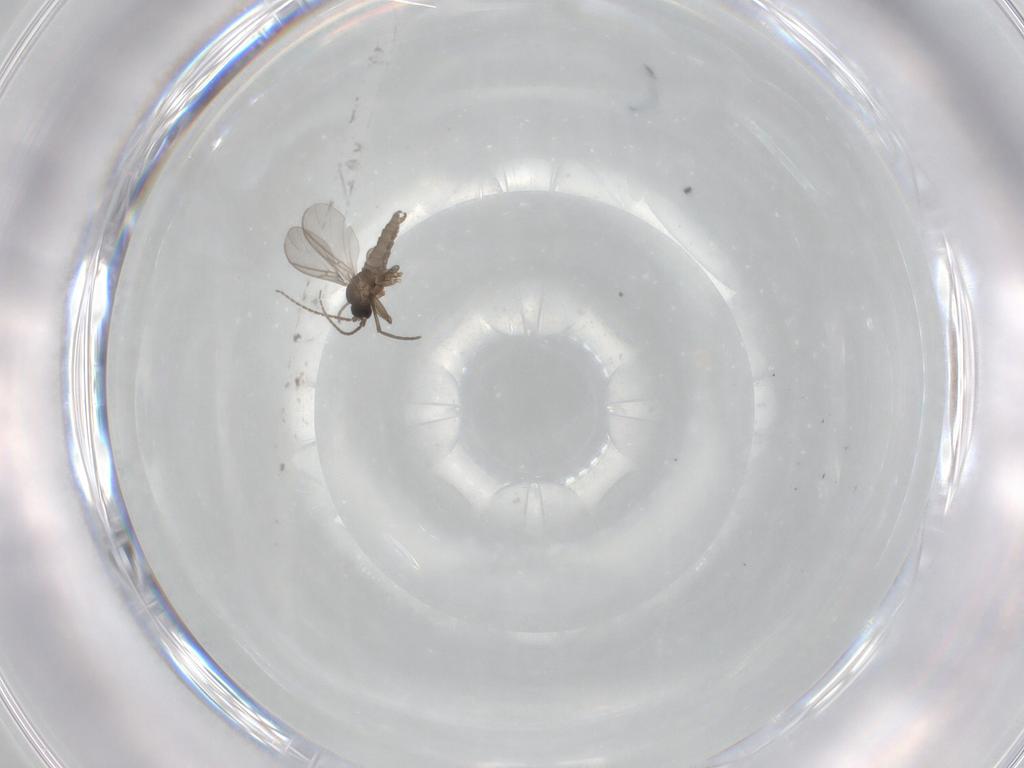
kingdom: Animalia
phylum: Arthropoda
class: Insecta
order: Diptera
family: Sciaridae
